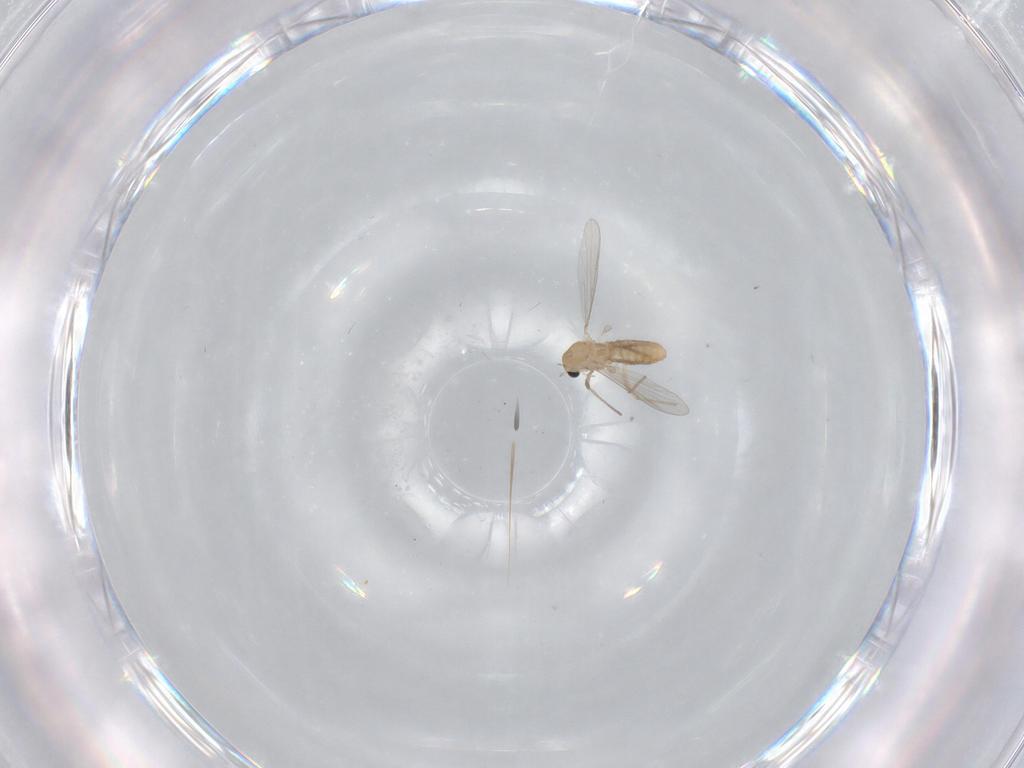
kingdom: Animalia
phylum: Arthropoda
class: Insecta
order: Diptera
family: Chironomidae
